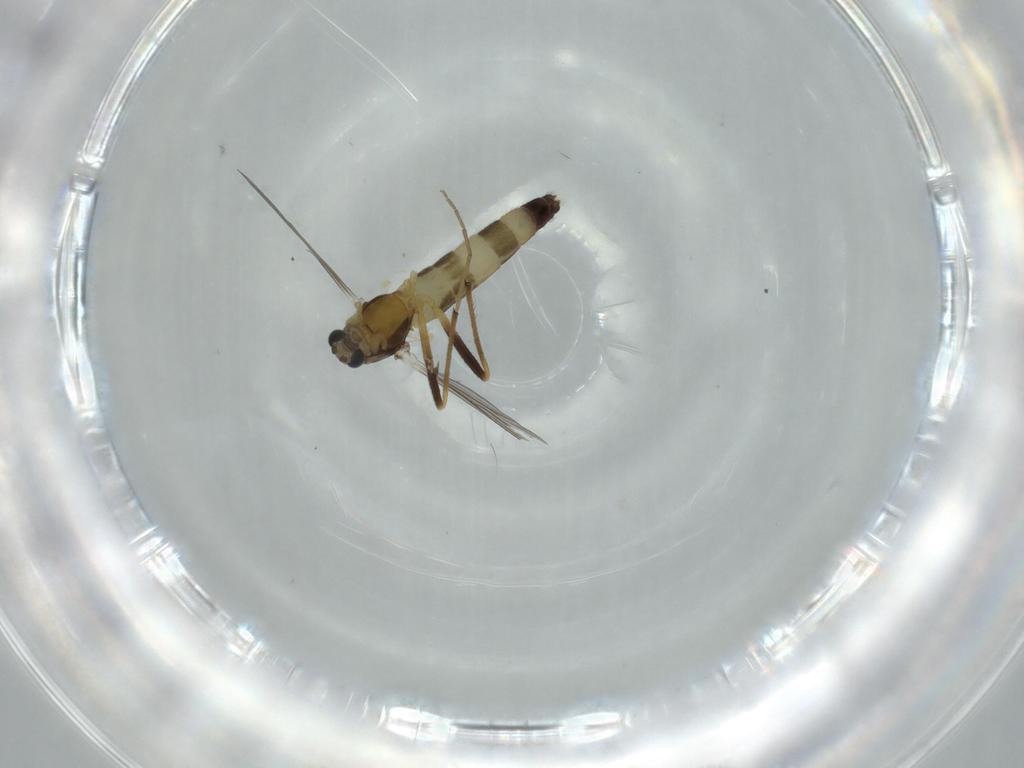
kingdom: Animalia
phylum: Arthropoda
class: Insecta
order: Diptera
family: Chironomidae
